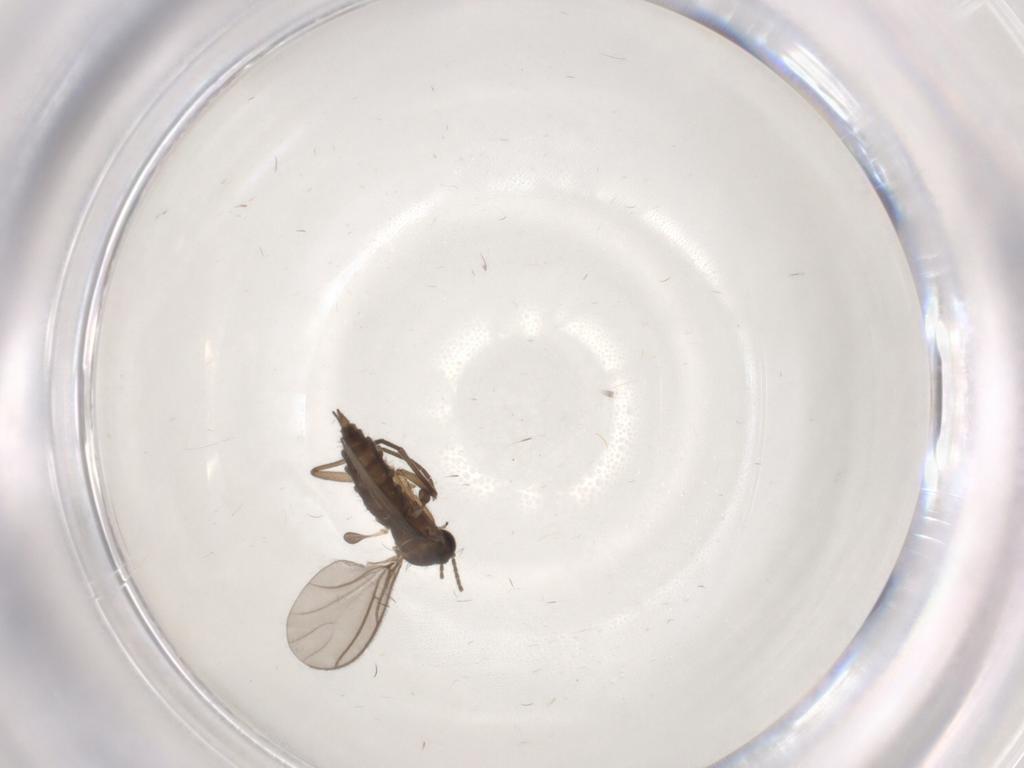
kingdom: Animalia
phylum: Arthropoda
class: Insecta
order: Diptera
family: Sciaridae
